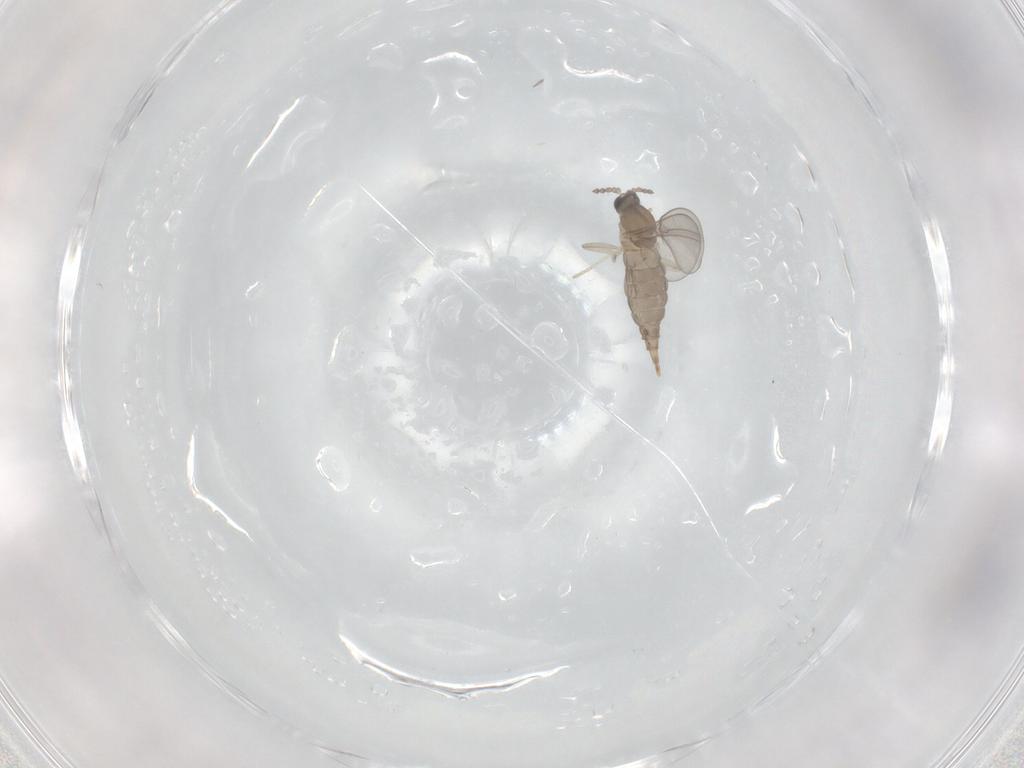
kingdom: Animalia
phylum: Arthropoda
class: Insecta
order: Diptera
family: Cecidomyiidae
